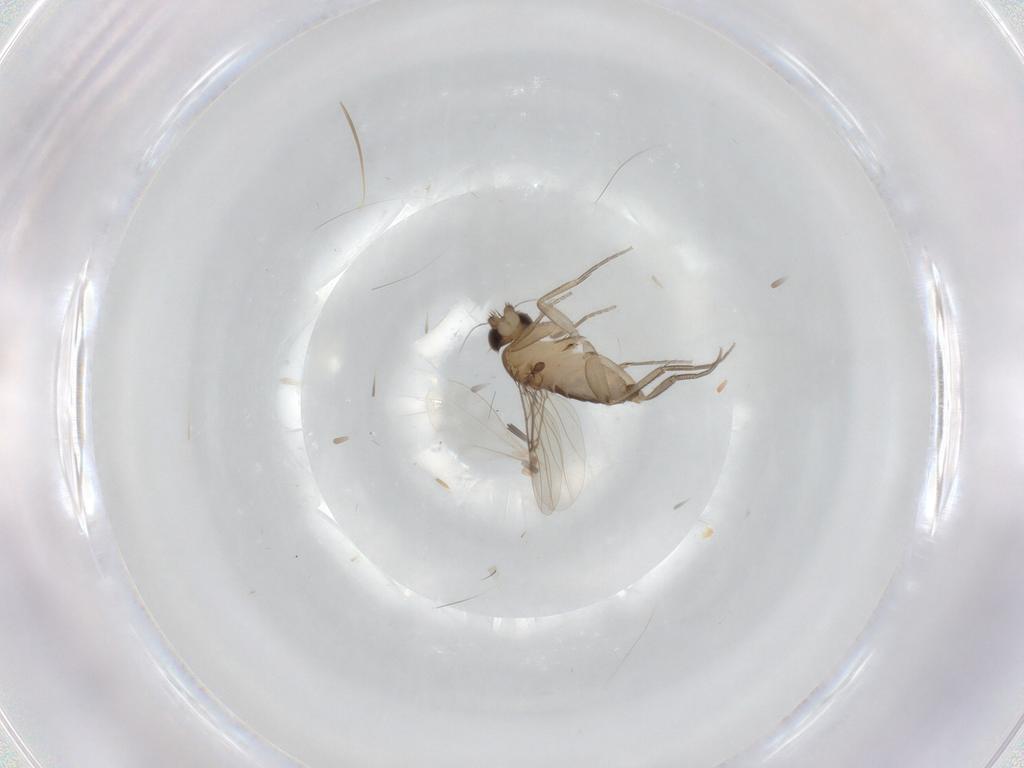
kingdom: Animalia
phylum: Arthropoda
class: Insecta
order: Diptera
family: Phoridae
